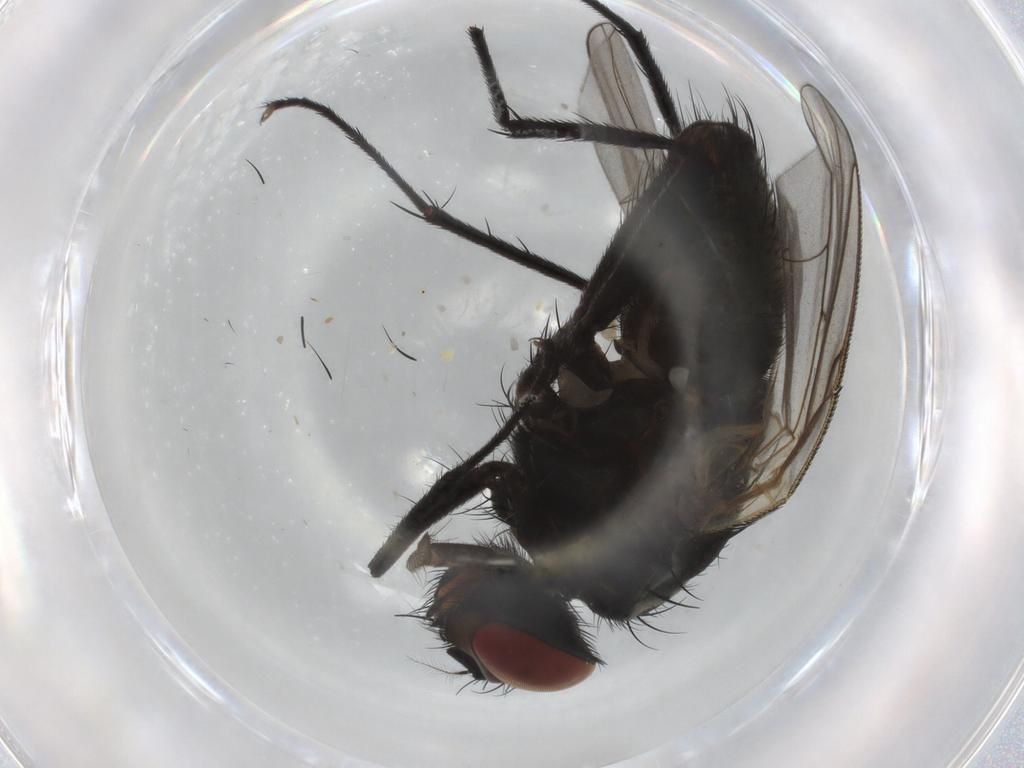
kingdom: Animalia
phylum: Arthropoda
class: Insecta
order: Diptera
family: Muscidae
